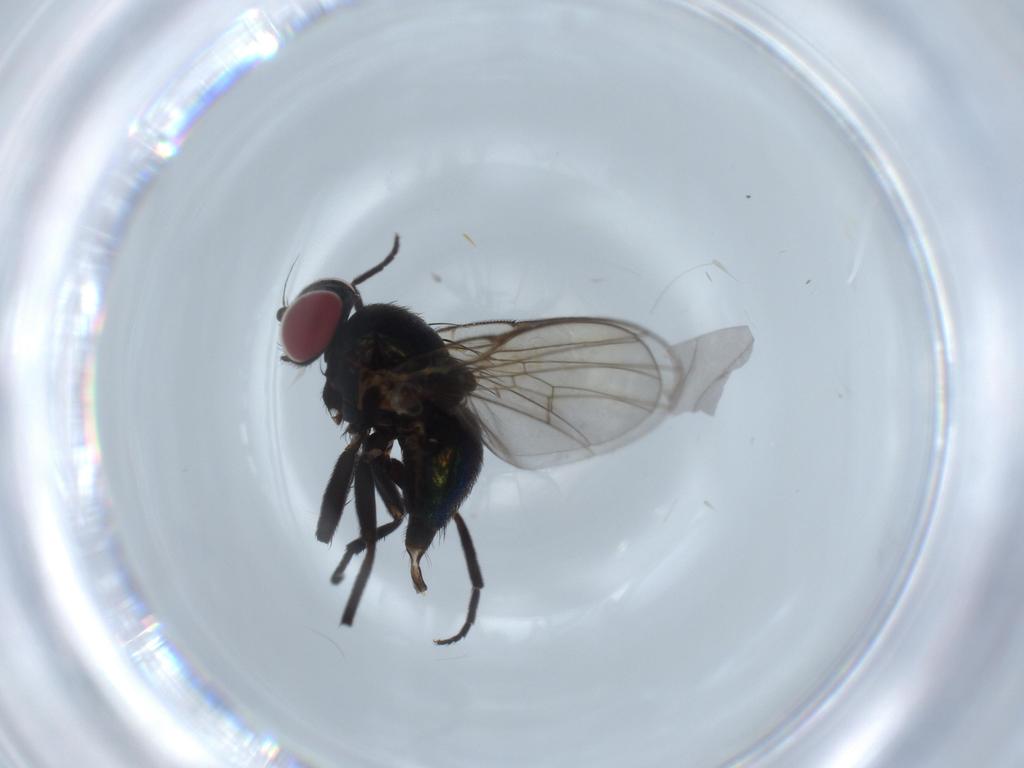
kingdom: Animalia
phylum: Arthropoda
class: Insecta
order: Diptera
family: Agromyzidae
